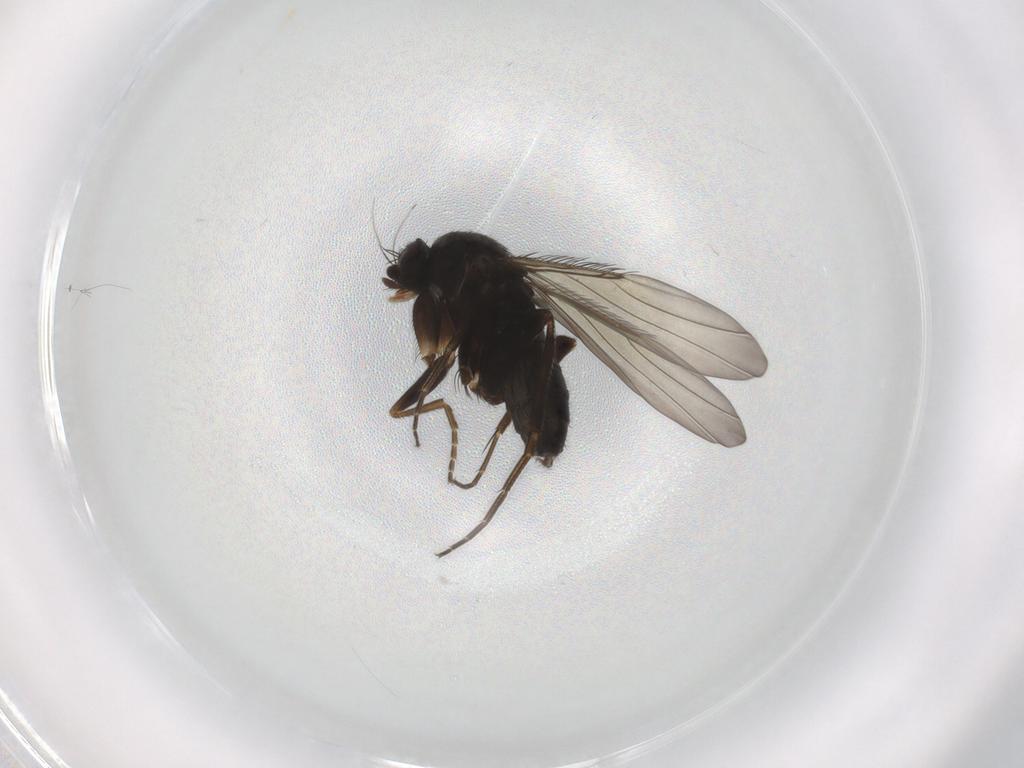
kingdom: Animalia
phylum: Arthropoda
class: Insecta
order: Diptera
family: Phoridae
